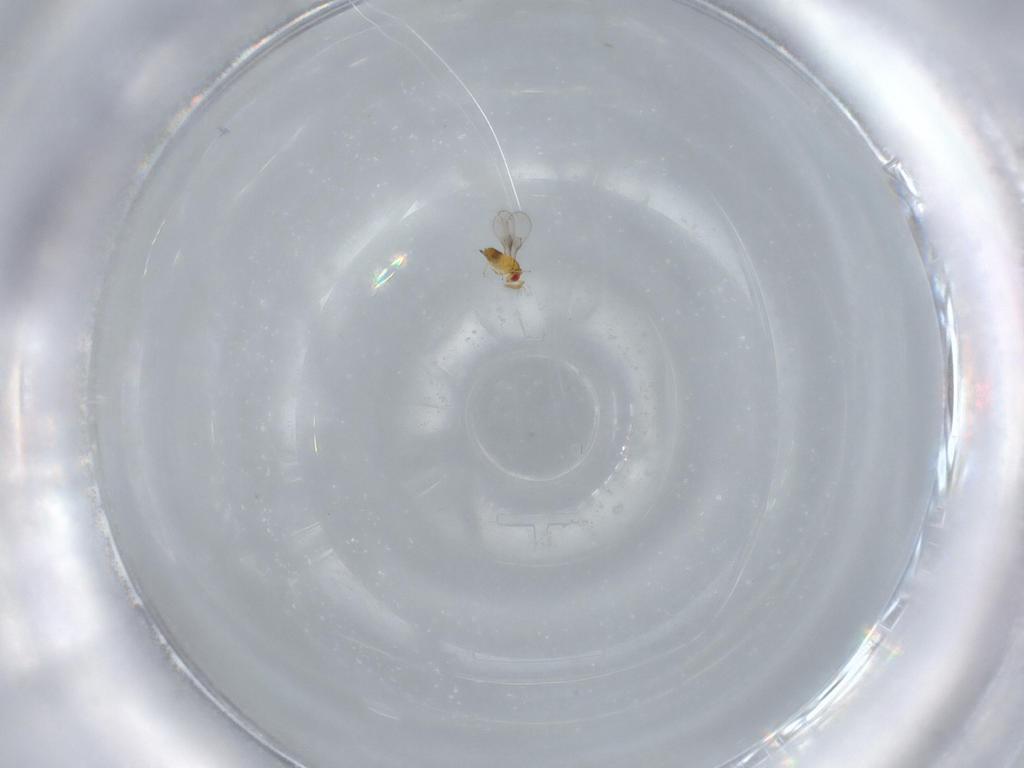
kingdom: Animalia
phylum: Arthropoda
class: Insecta
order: Hymenoptera
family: Trichogrammatidae
